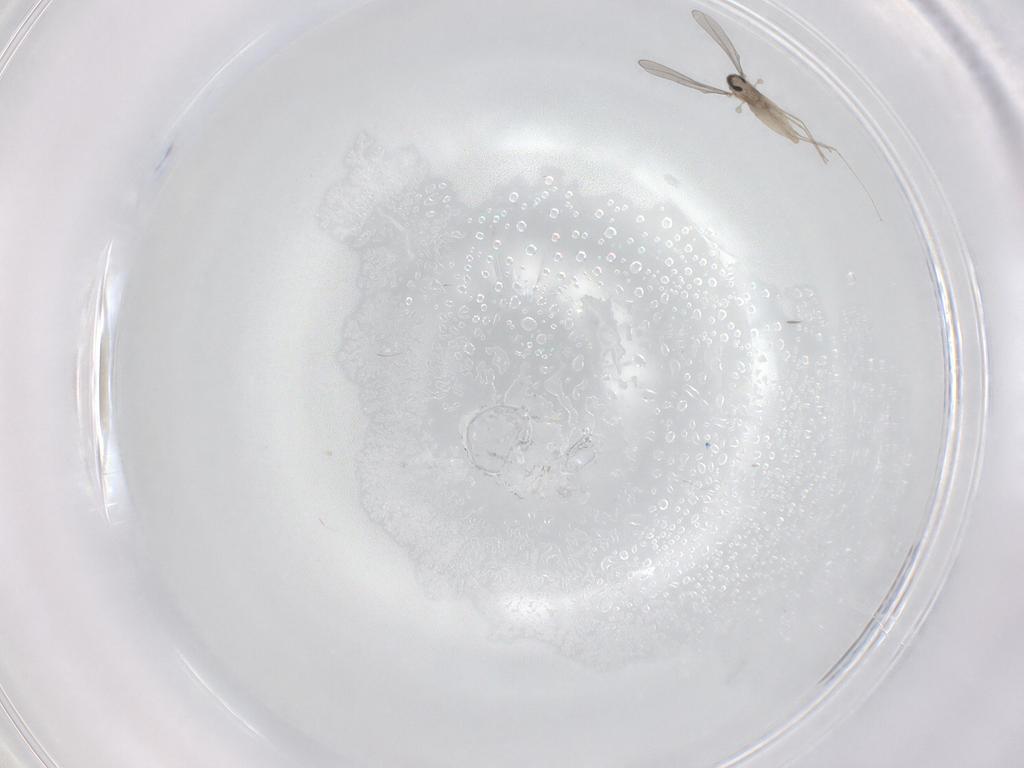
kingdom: Animalia
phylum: Arthropoda
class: Insecta
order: Diptera
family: Cecidomyiidae
